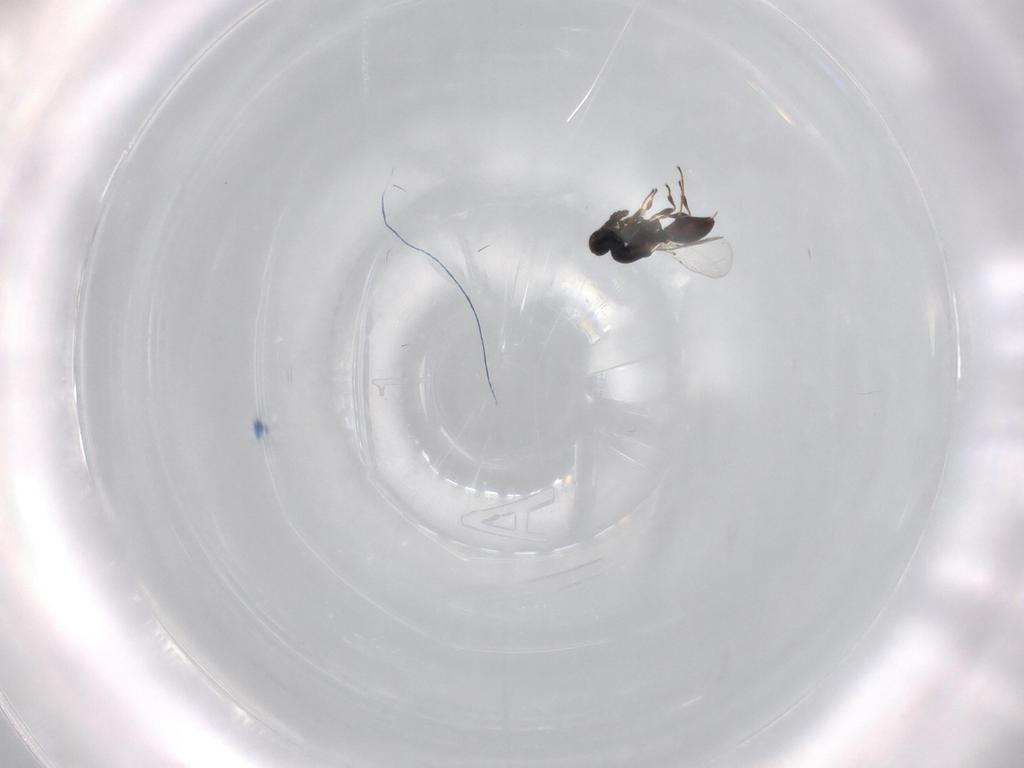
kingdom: Animalia
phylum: Arthropoda
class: Insecta
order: Hymenoptera
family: Platygastridae
